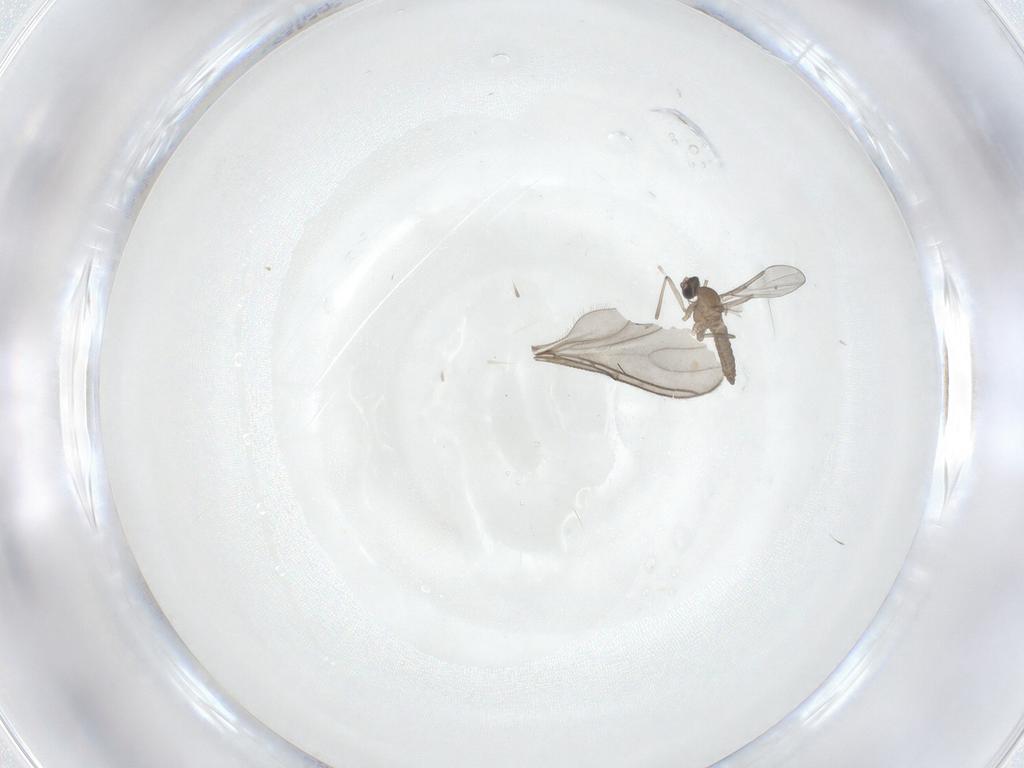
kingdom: Animalia
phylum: Arthropoda
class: Insecta
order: Diptera
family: Cecidomyiidae
